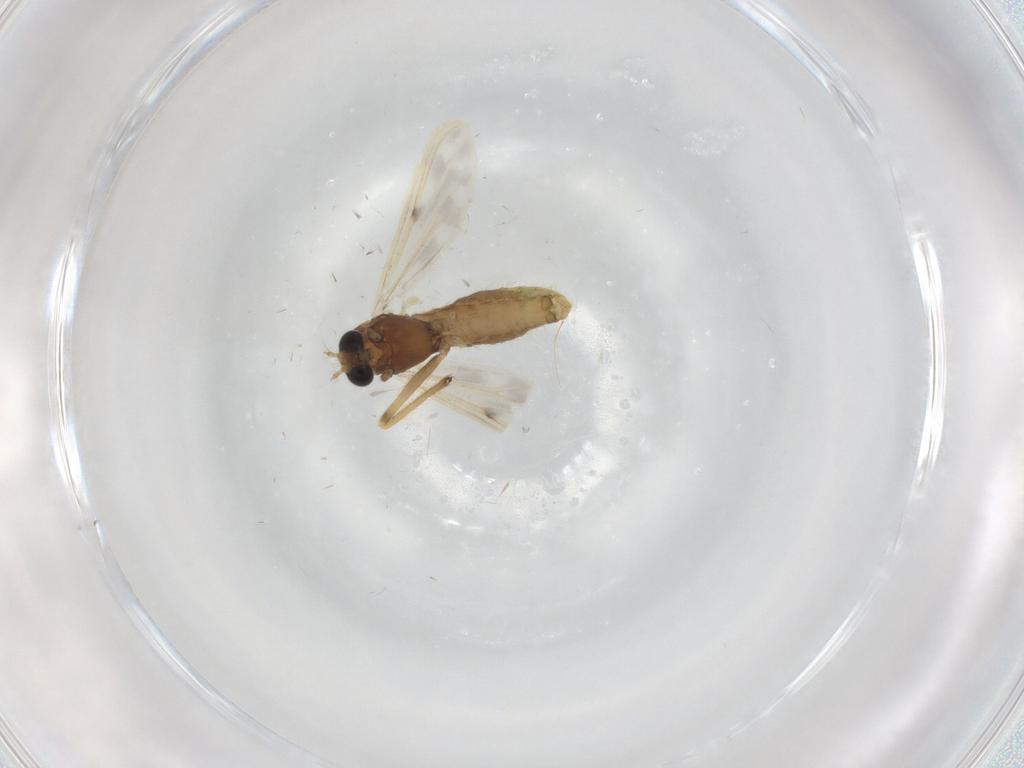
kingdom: Animalia
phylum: Arthropoda
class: Insecta
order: Diptera
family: Chironomidae
